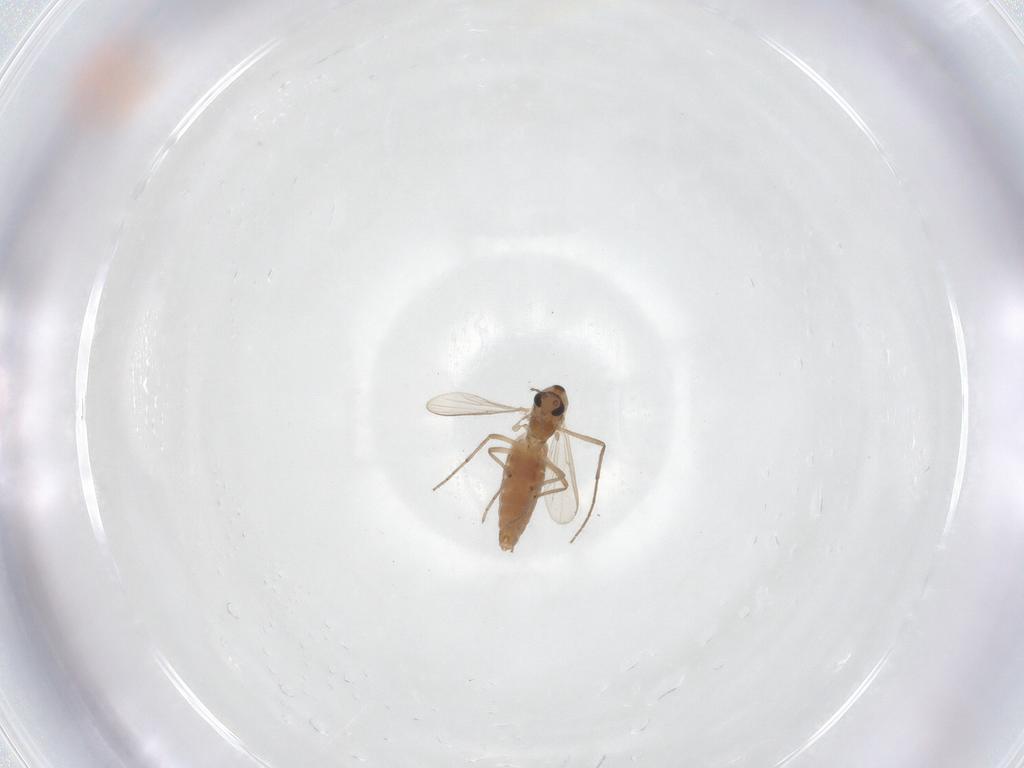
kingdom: Animalia
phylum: Arthropoda
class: Insecta
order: Diptera
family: Chironomidae
